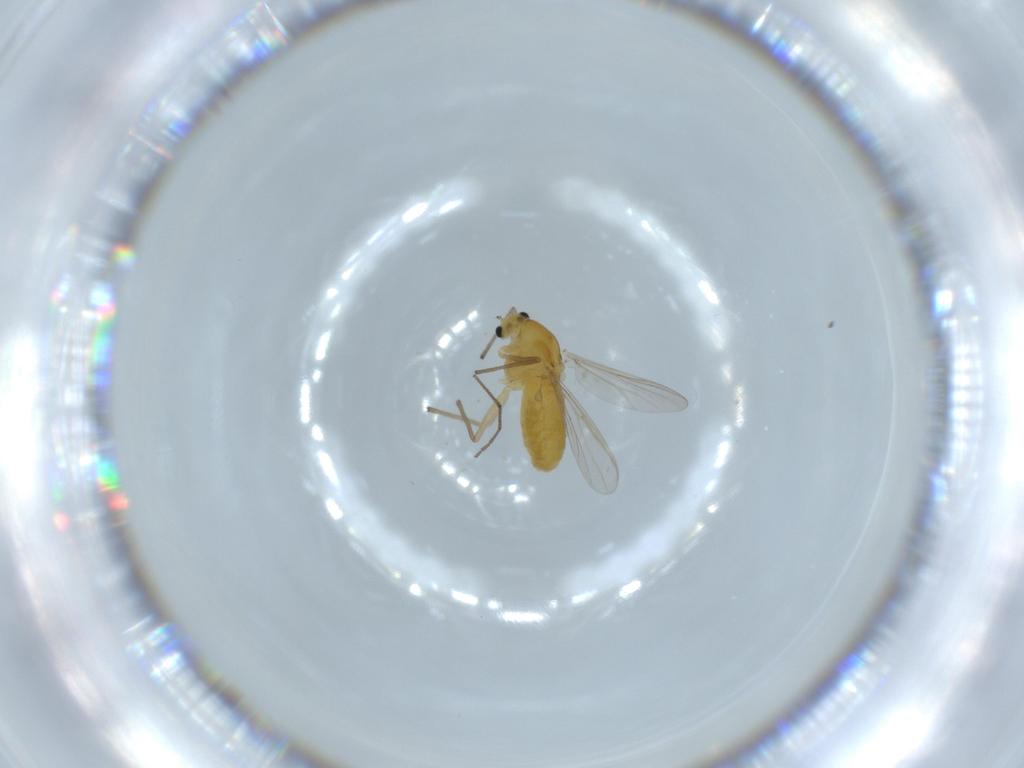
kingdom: Animalia
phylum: Arthropoda
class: Insecta
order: Diptera
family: Chironomidae
